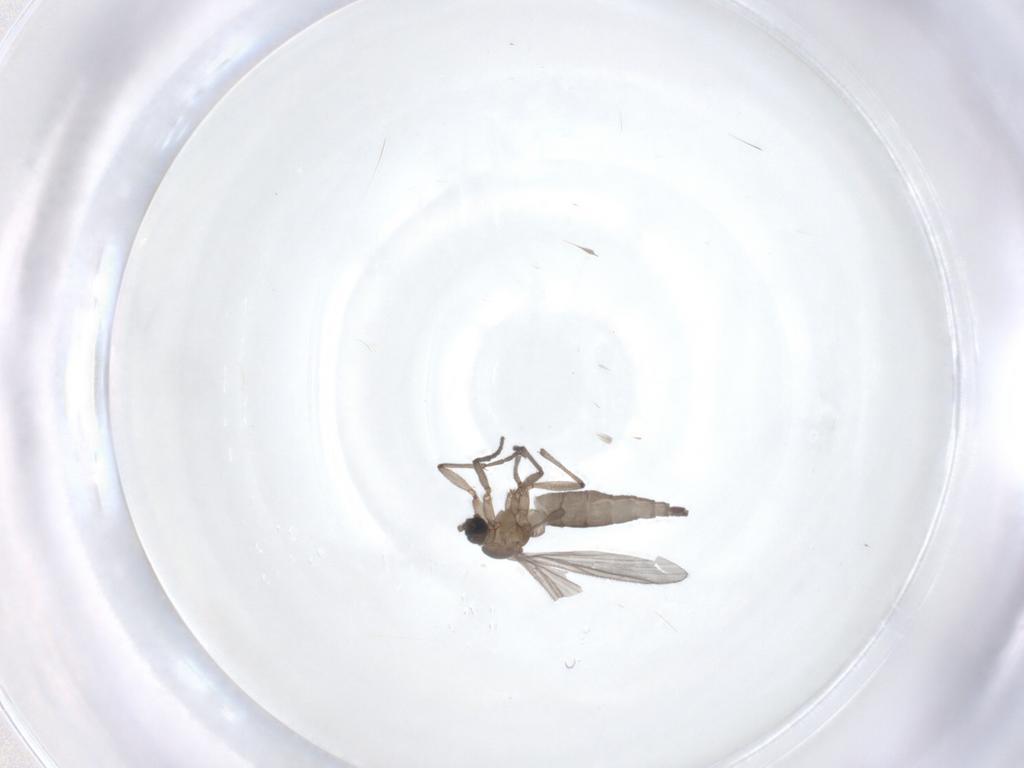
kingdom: Animalia
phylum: Arthropoda
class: Insecta
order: Diptera
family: Sciaridae
